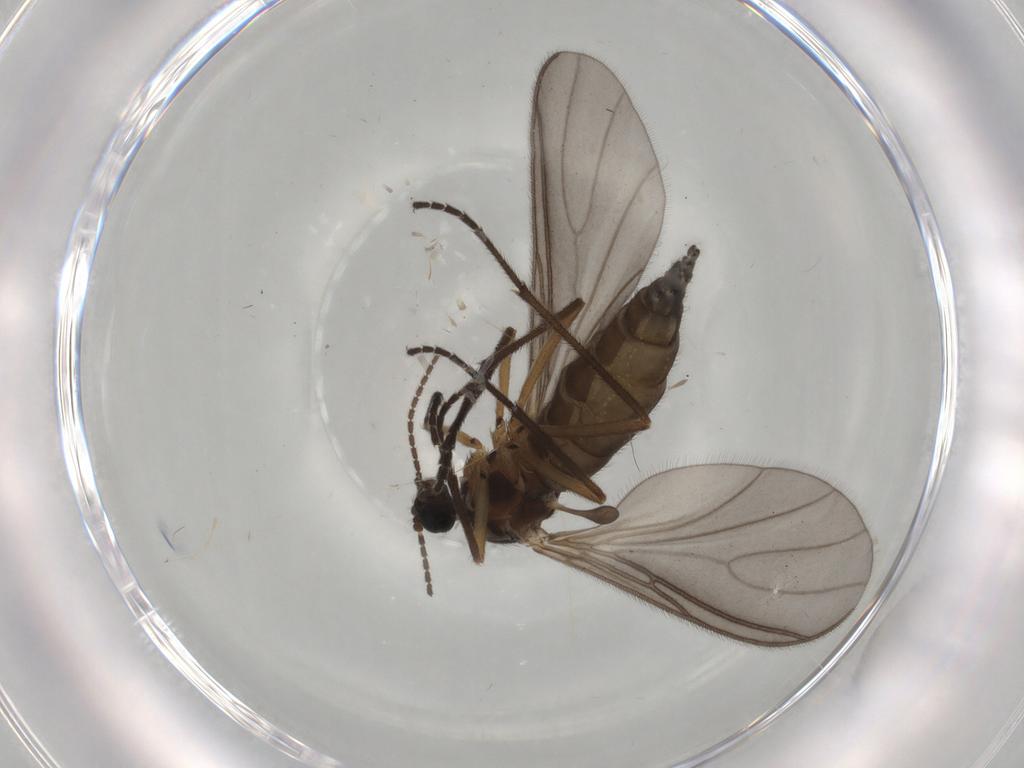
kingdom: Animalia
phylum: Arthropoda
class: Insecta
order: Diptera
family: Sciaridae
